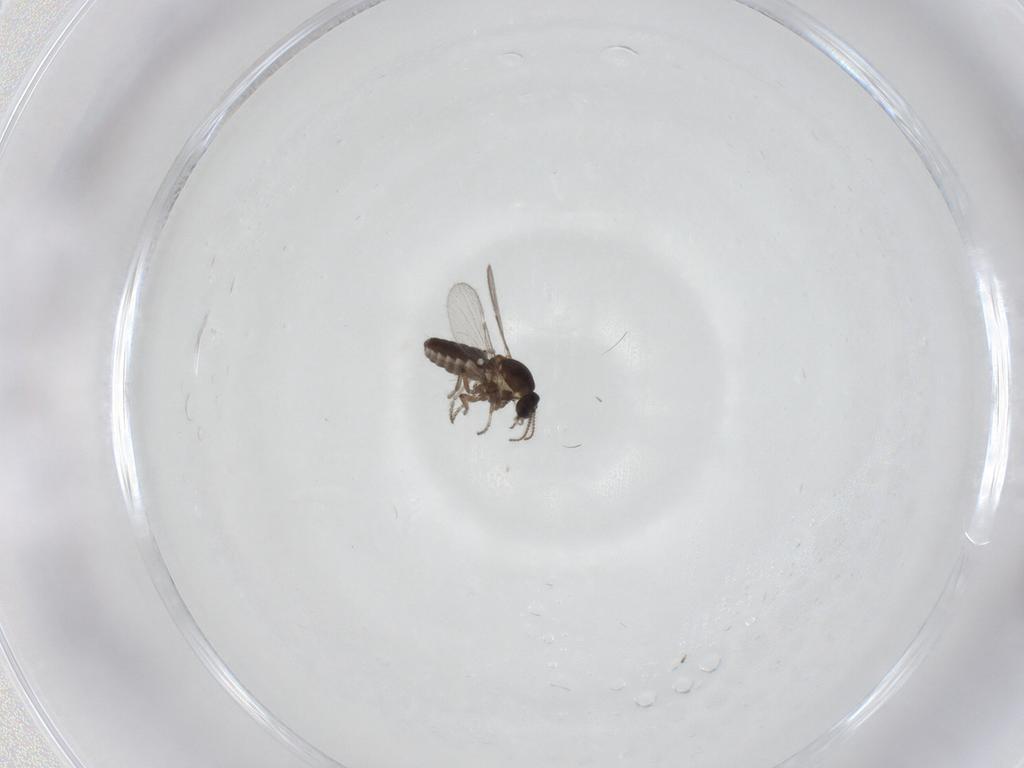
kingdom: Animalia
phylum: Arthropoda
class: Insecta
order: Diptera
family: Ceratopogonidae
